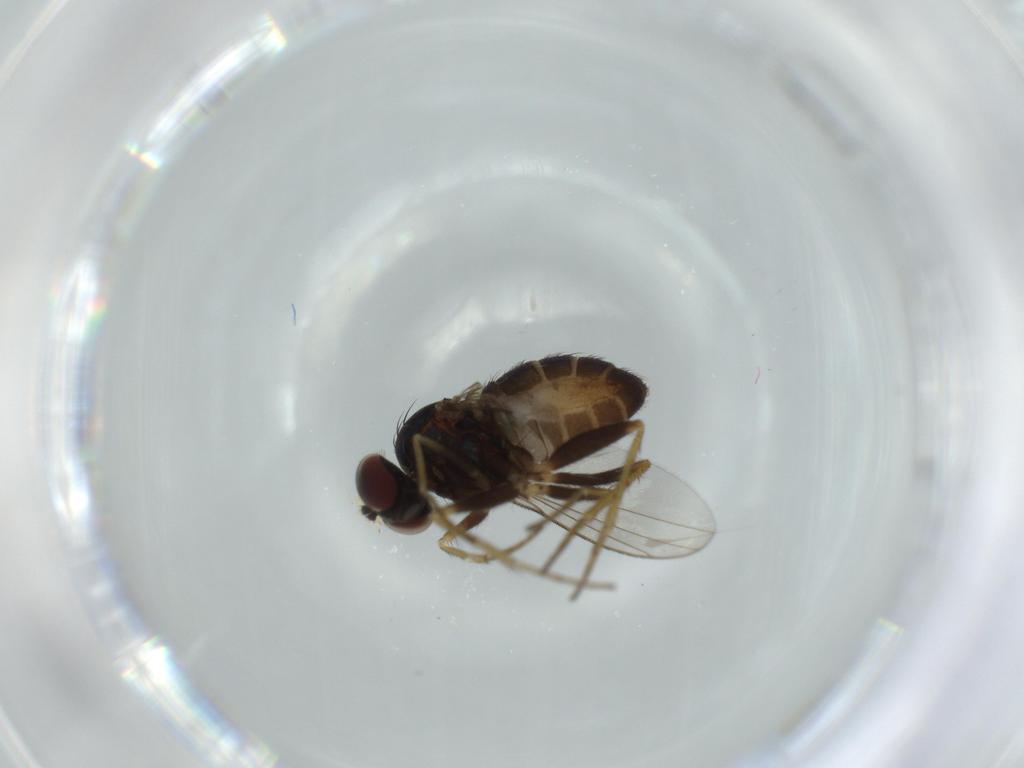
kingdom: Animalia
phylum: Arthropoda
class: Insecta
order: Diptera
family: Dolichopodidae
